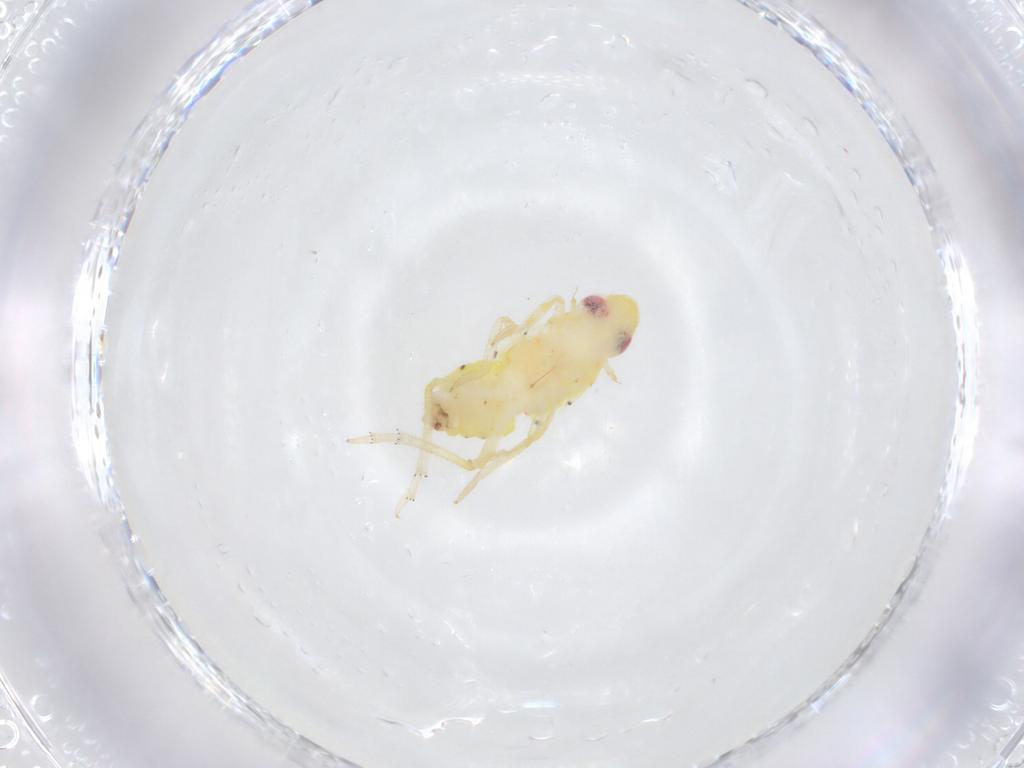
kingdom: Animalia
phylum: Arthropoda
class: Insecta
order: Hemiptera
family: Tropiduchidae
